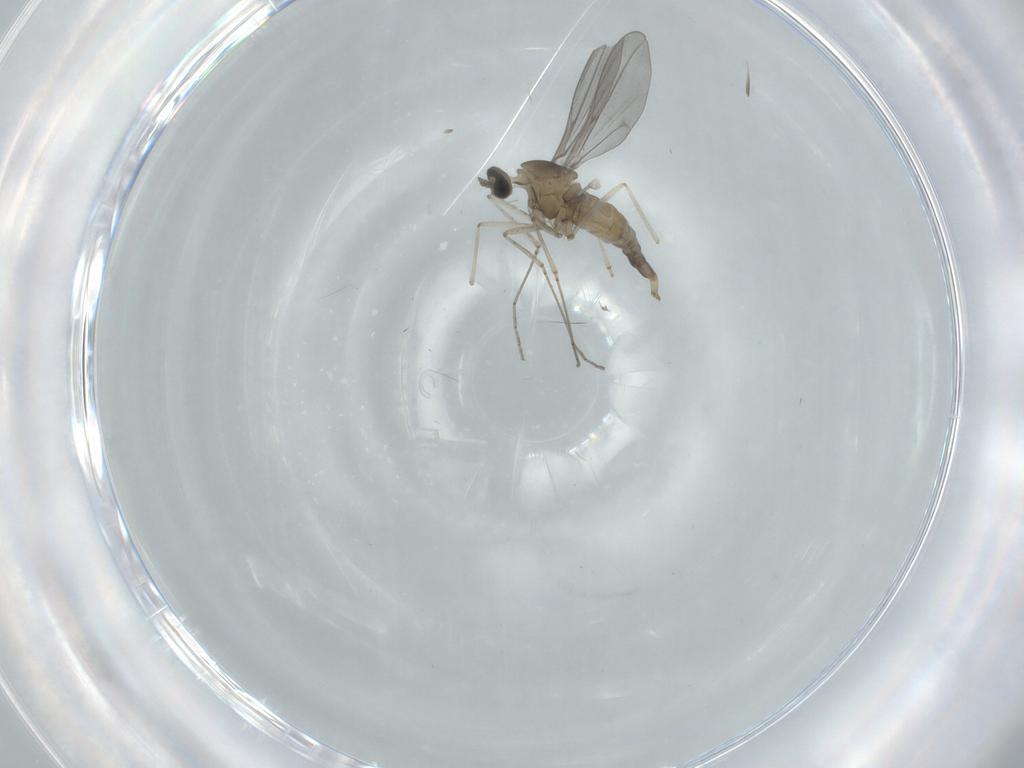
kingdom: Animalia
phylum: Arthropoda
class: Insecta
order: Diptera
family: Cecidomyiidae
